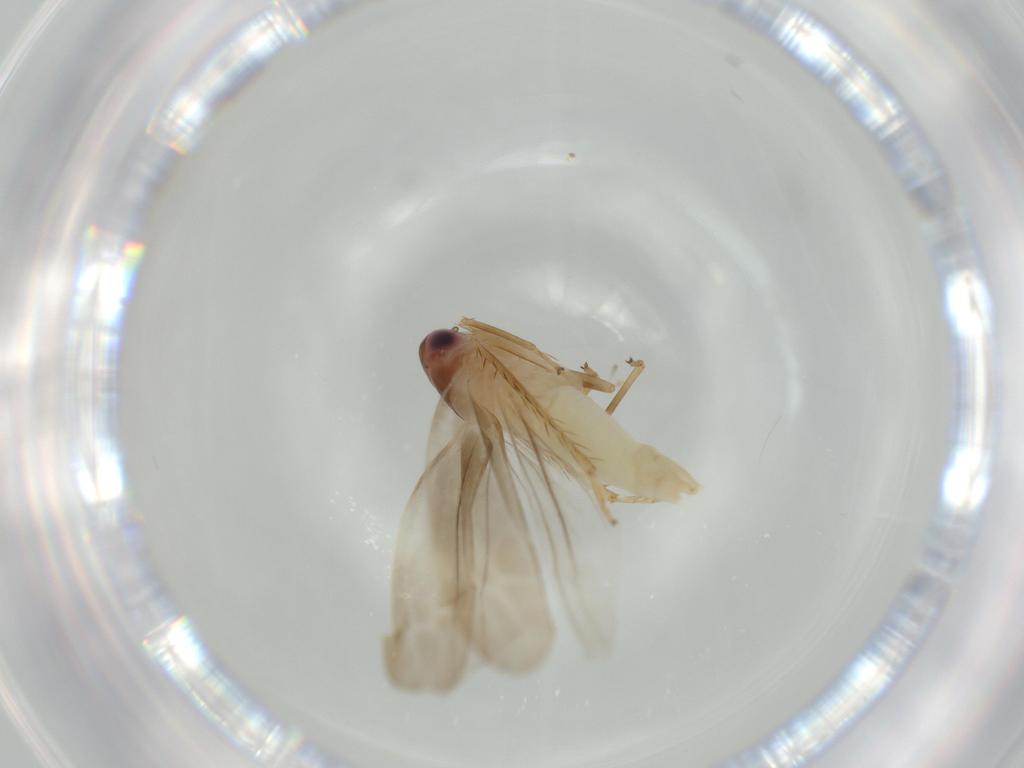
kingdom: Animalia
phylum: Arthropoda
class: Insecta
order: Hemiptera
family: Cicadellidae
